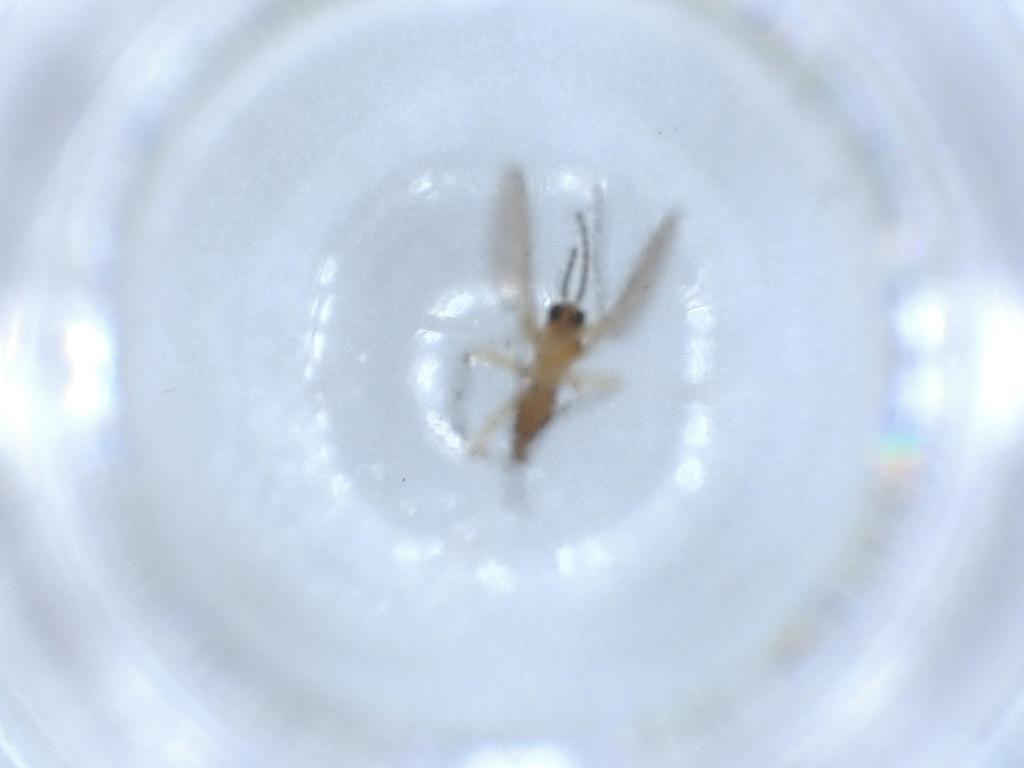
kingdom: Animalia
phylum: Arthropoda
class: Insecta
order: Diptera
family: Sciaridae
